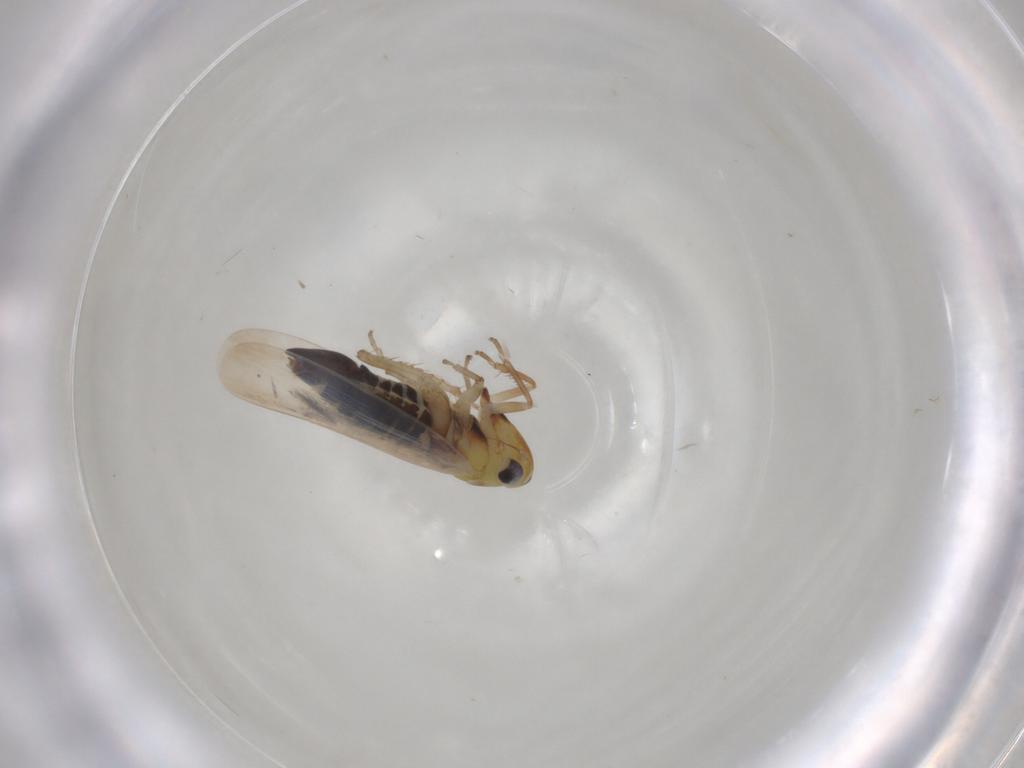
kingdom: Animalia
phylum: Arthropoda
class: Insecta
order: Hemiptera
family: Cicadellidae
